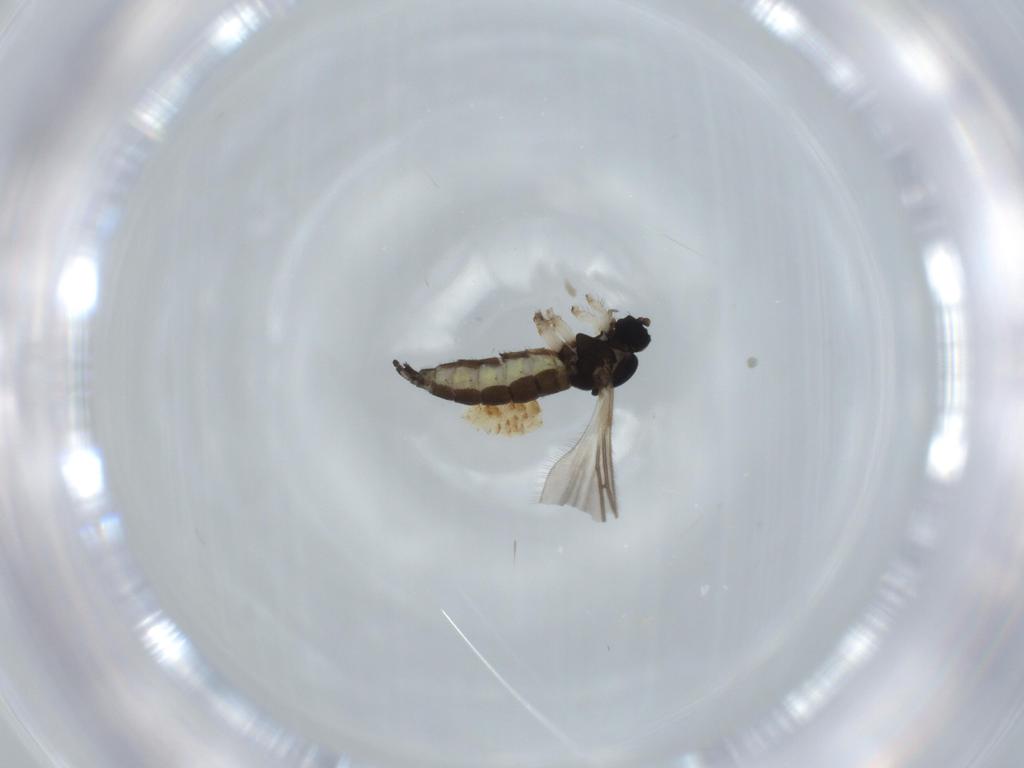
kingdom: Animalia
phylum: Arthropoda
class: Insecta
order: Diptera
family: Sciaridae
